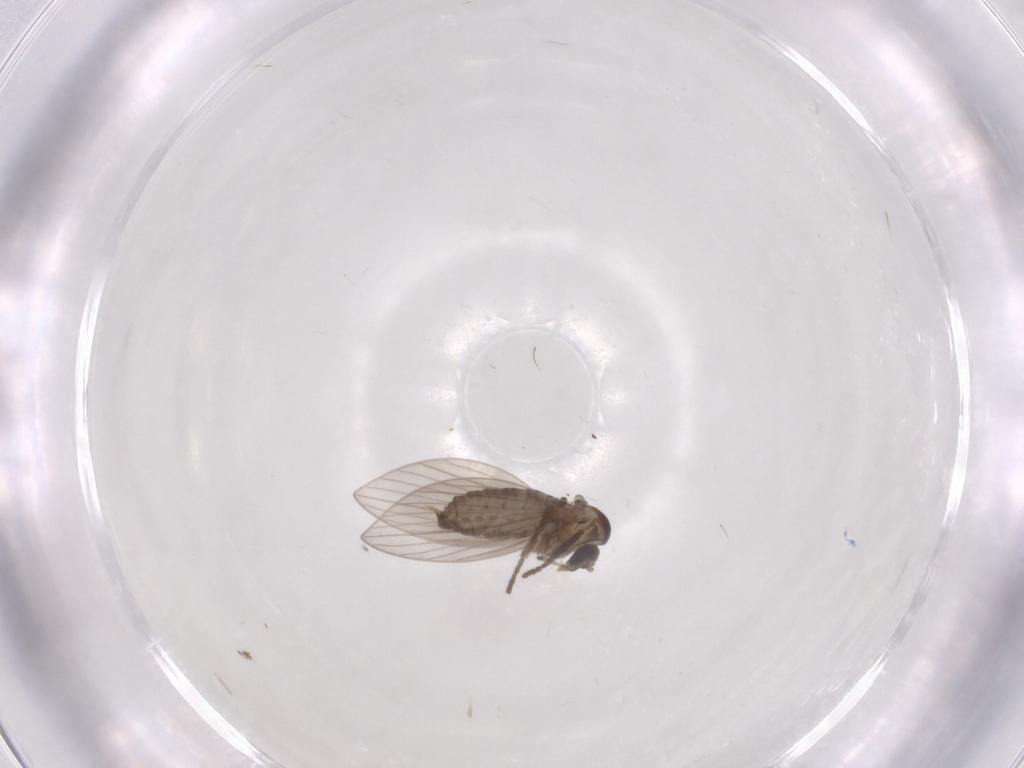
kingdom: Animalia
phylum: Arthropoda
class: Insecta
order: Diptera
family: Psychodidae
